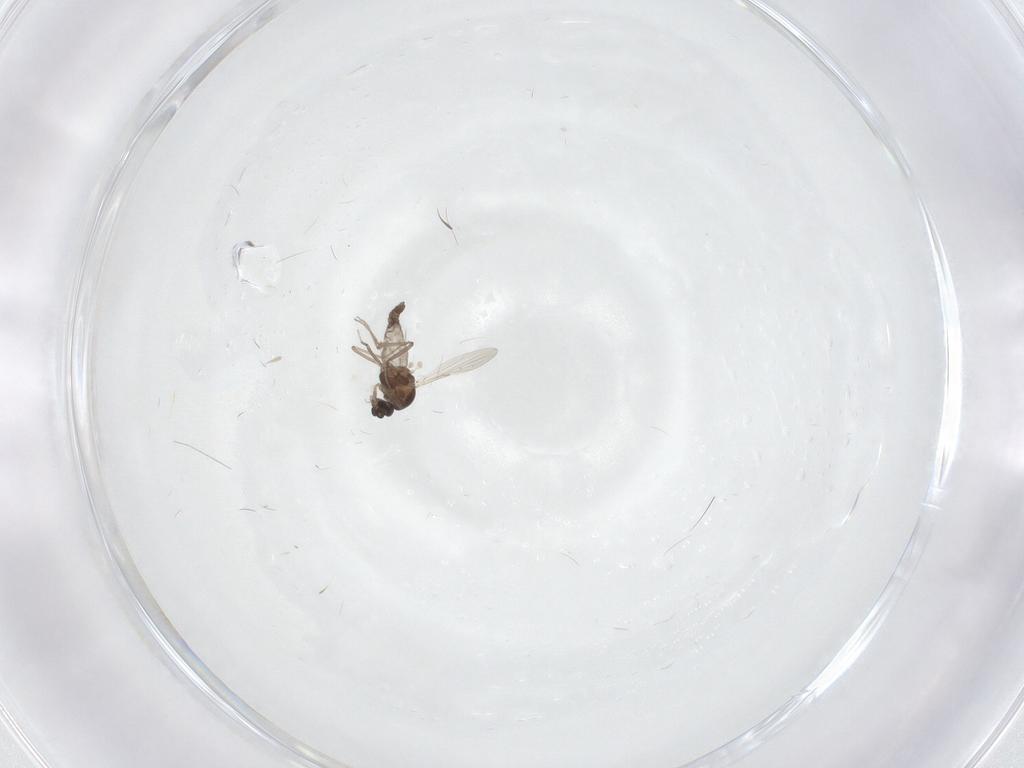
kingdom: Animalia
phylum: Arthropoda
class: Insecta
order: Diptera
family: Ceratopogonidae
